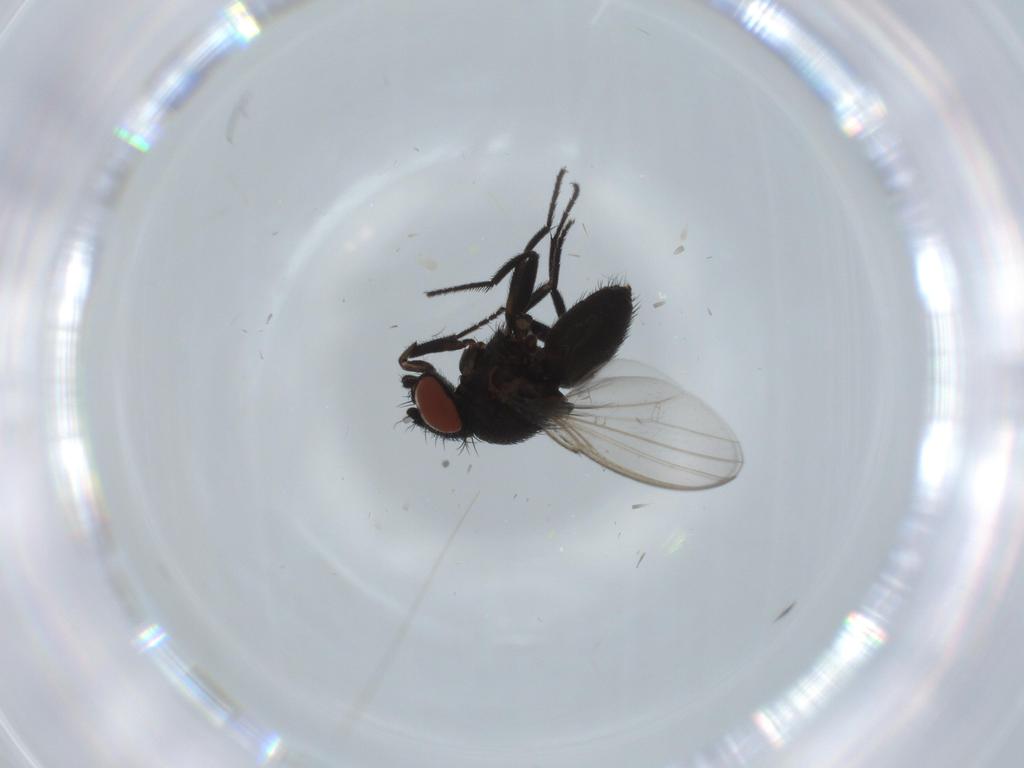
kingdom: Animalia
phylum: Arthropoda
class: Insecta
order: Diptera
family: Milichiidae
